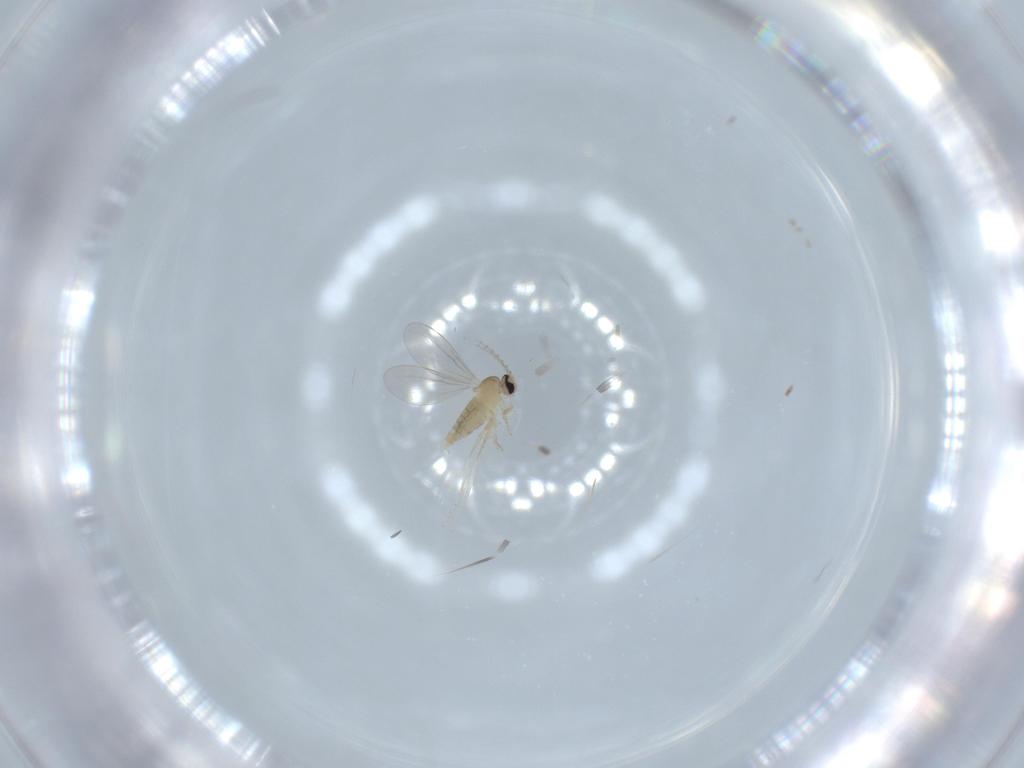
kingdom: Animalia
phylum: Arthropoda
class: Insecta
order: Diptera
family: Cecidomyiidae
